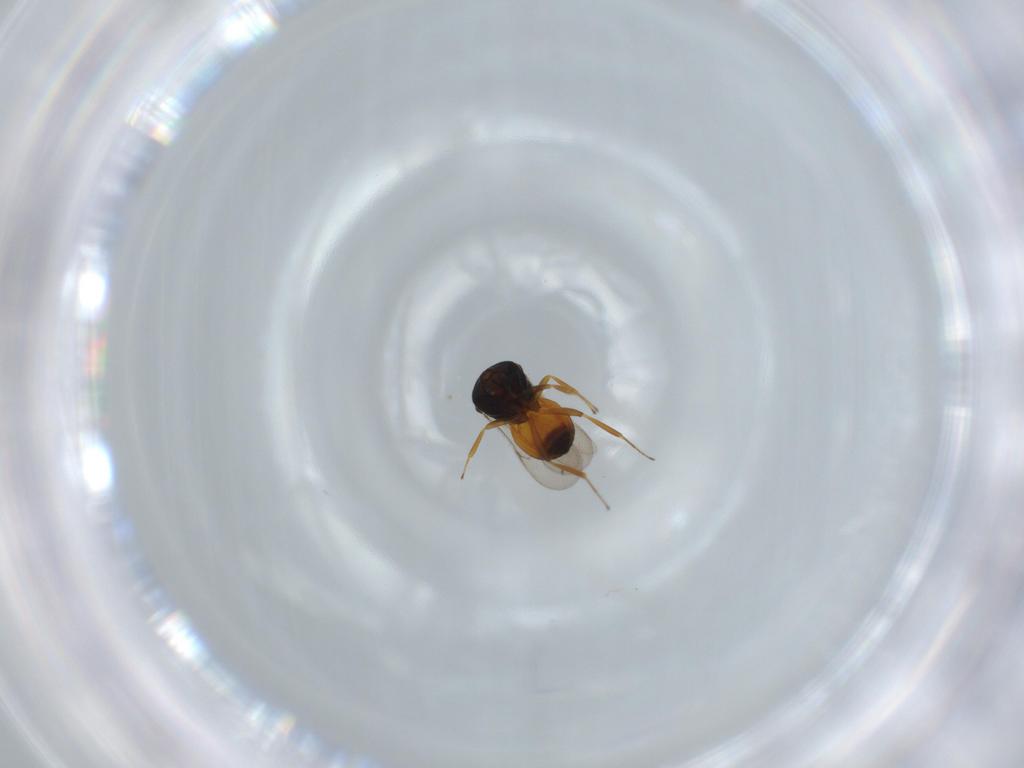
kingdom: Animalia
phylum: Arthropoda
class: Insecta
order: Hymenoptera
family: Scelionidae
